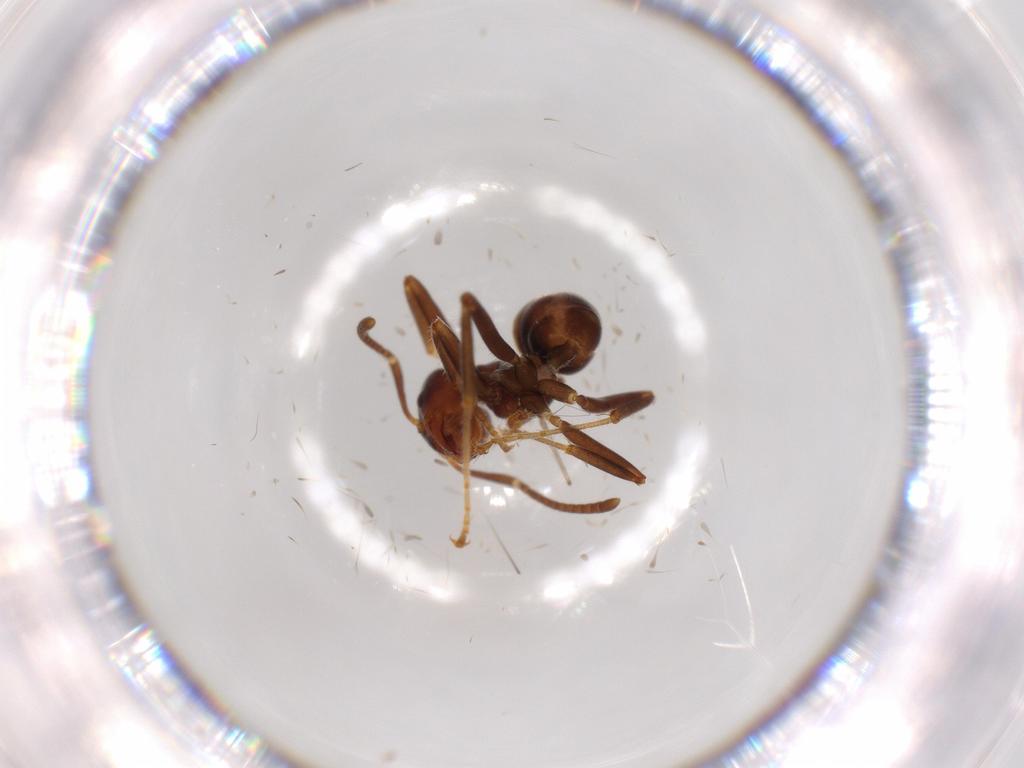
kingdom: Animalia
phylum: Arthropoda
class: Insecta
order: Hymenoptera
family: Formicidae
